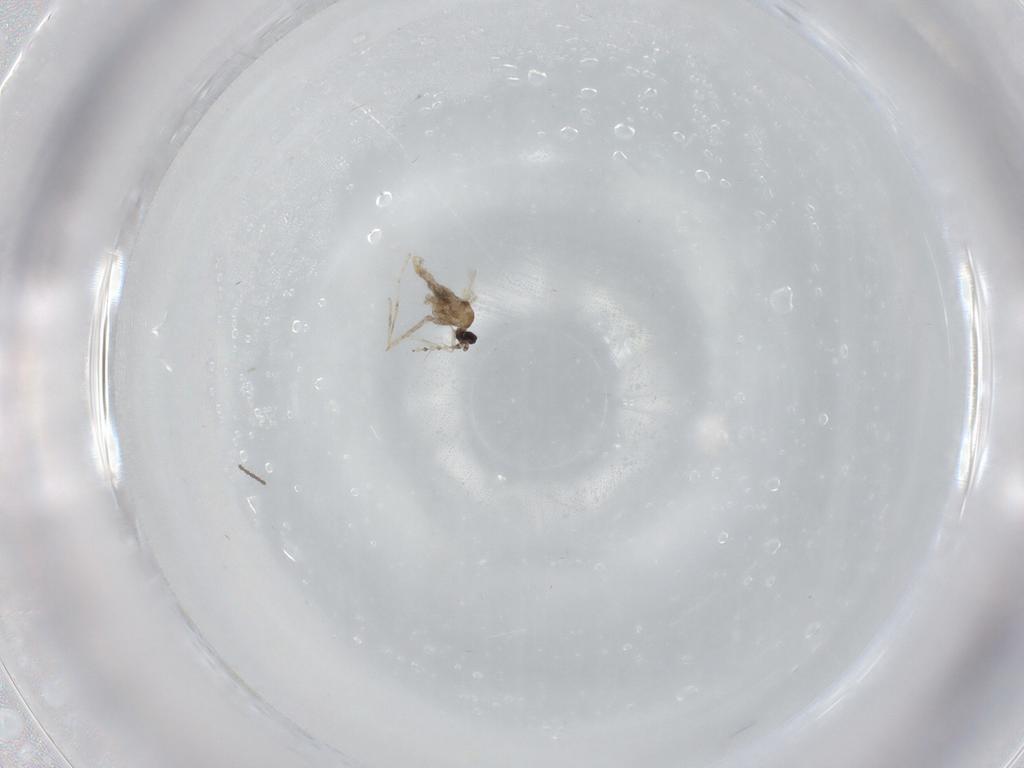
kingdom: Animalia
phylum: Arthropoda
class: Insecta
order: Diptera
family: Cecidomyiidae
